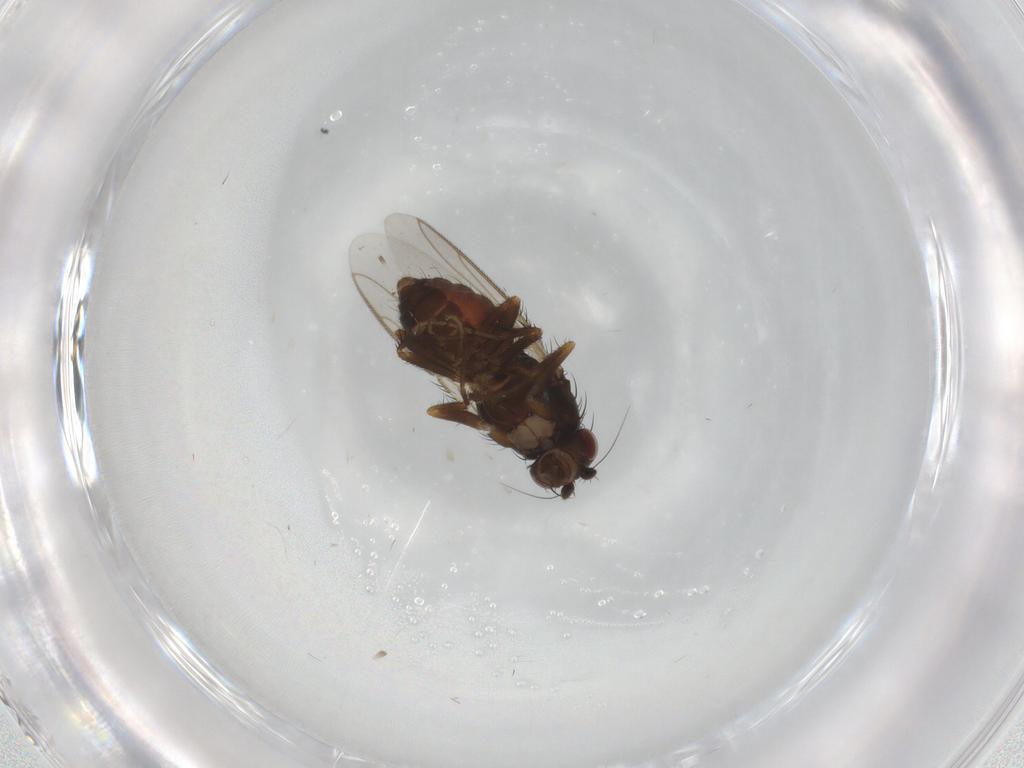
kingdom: Animalia
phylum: Arthropoda
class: Insecta
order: Diptera
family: Sphaeroceridae
